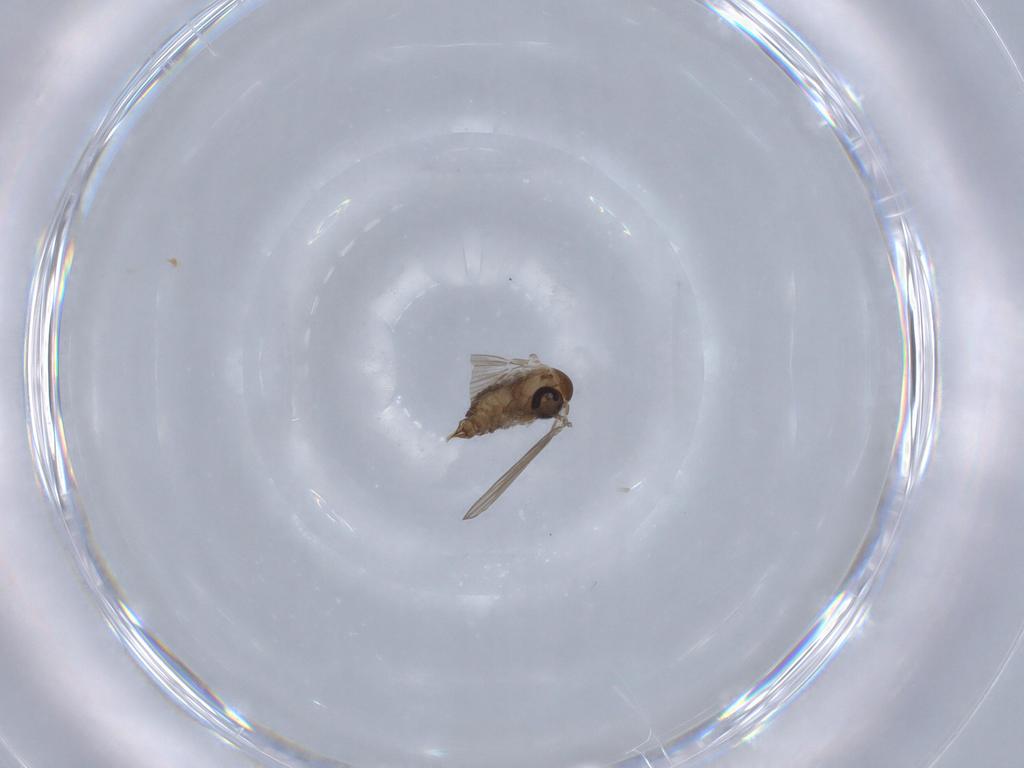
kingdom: Animalia
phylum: Arthropoda
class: Insecta
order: Diptera
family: Psychodidae
